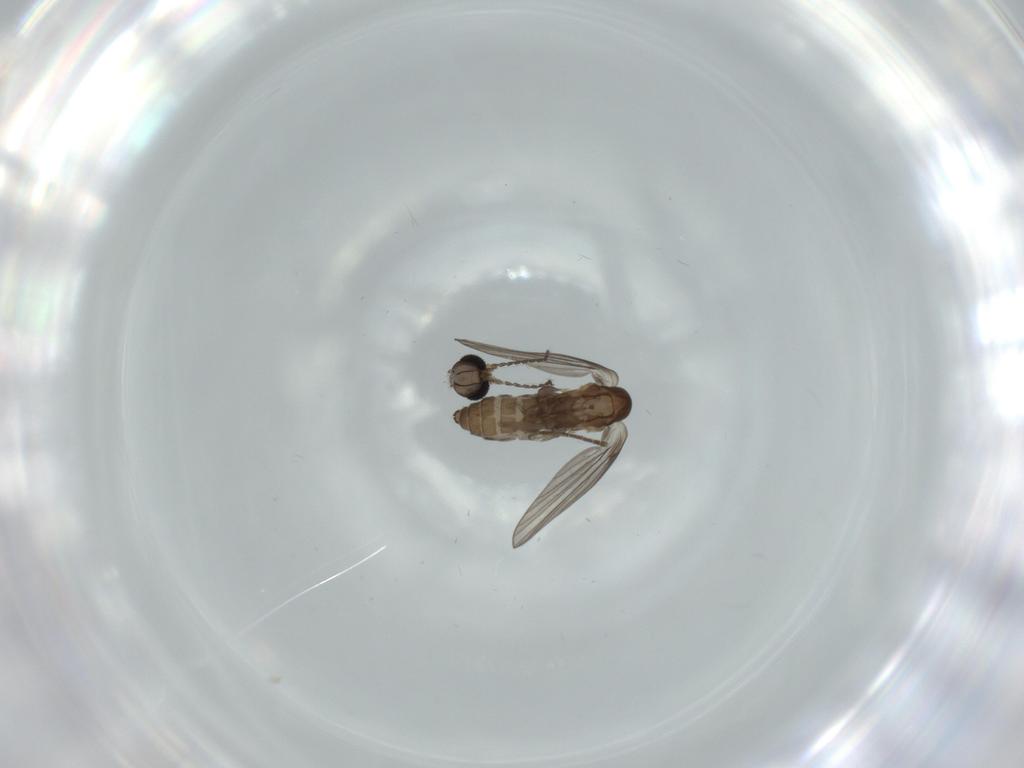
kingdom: Animalia
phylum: Arthropoda
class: Insecta
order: Diptera
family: Psychodidae
